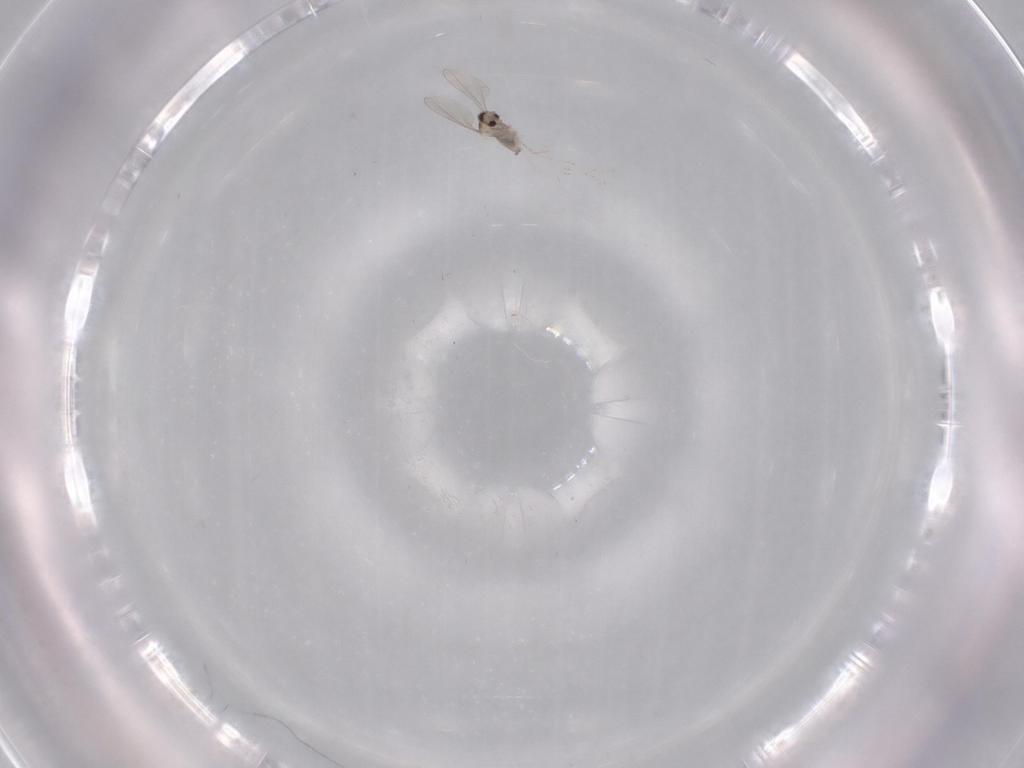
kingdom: Animalia
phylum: Arthropoda
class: Insecta
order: Diptera
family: Cecidomyiidae
